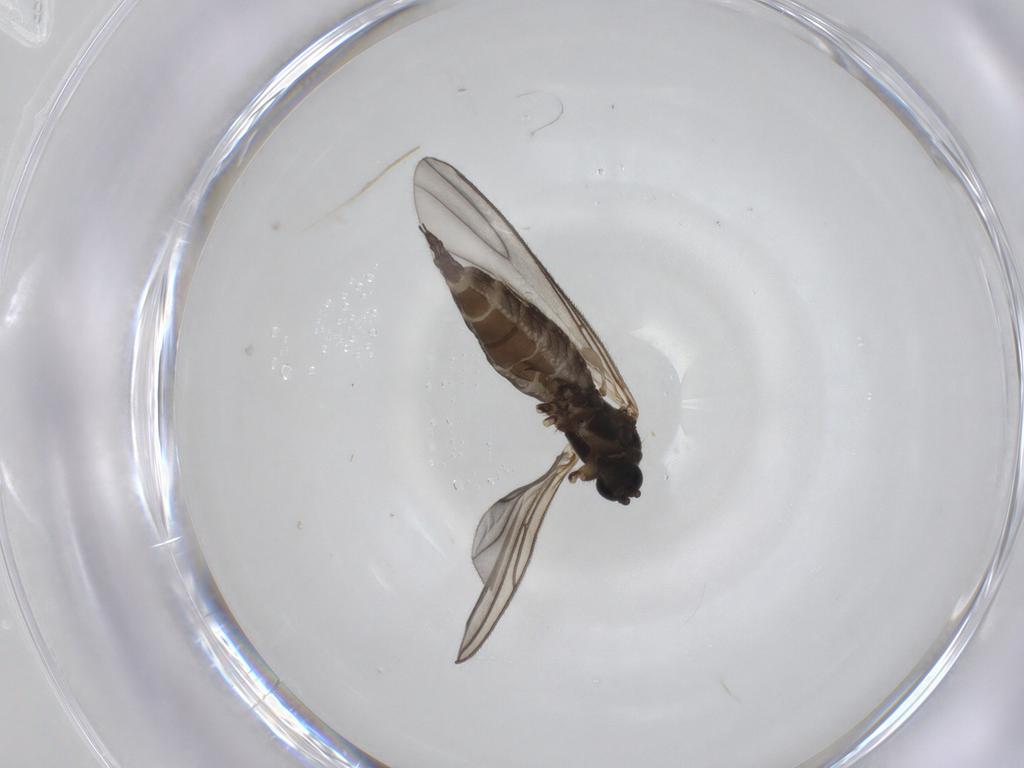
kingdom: Animalia
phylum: Arthropoda
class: Insecta
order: Diptera
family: Sciaridae
